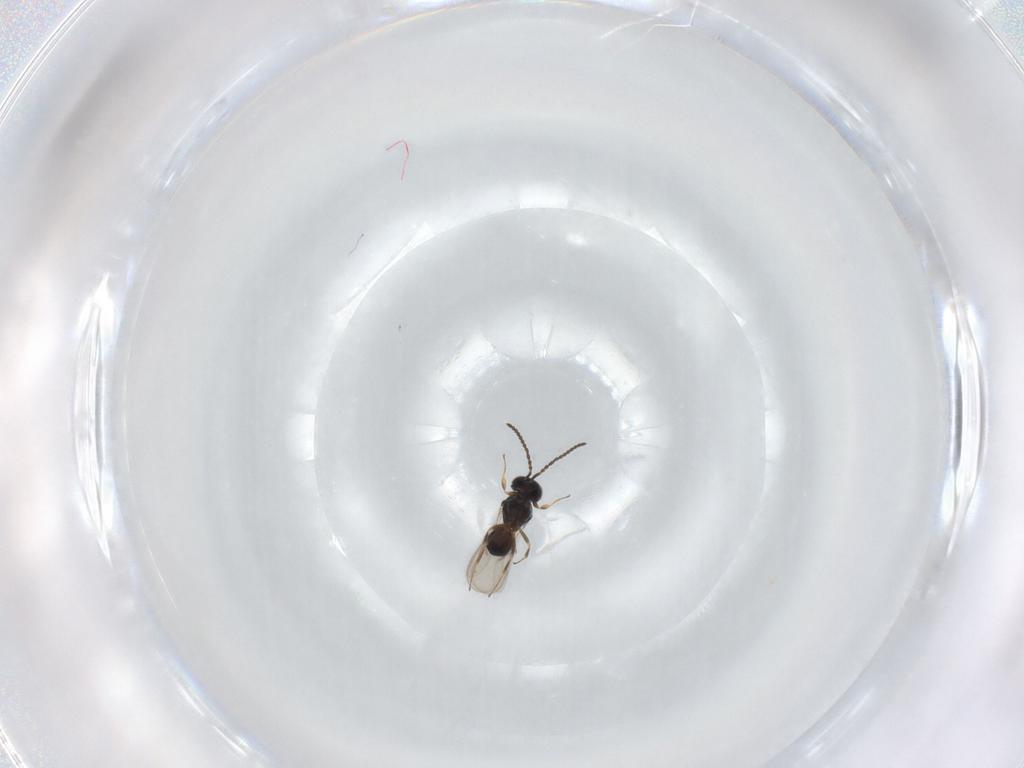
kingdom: Animalia
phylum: Arthropoda
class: Insecta
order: Hymenoptera
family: Scelionidae
